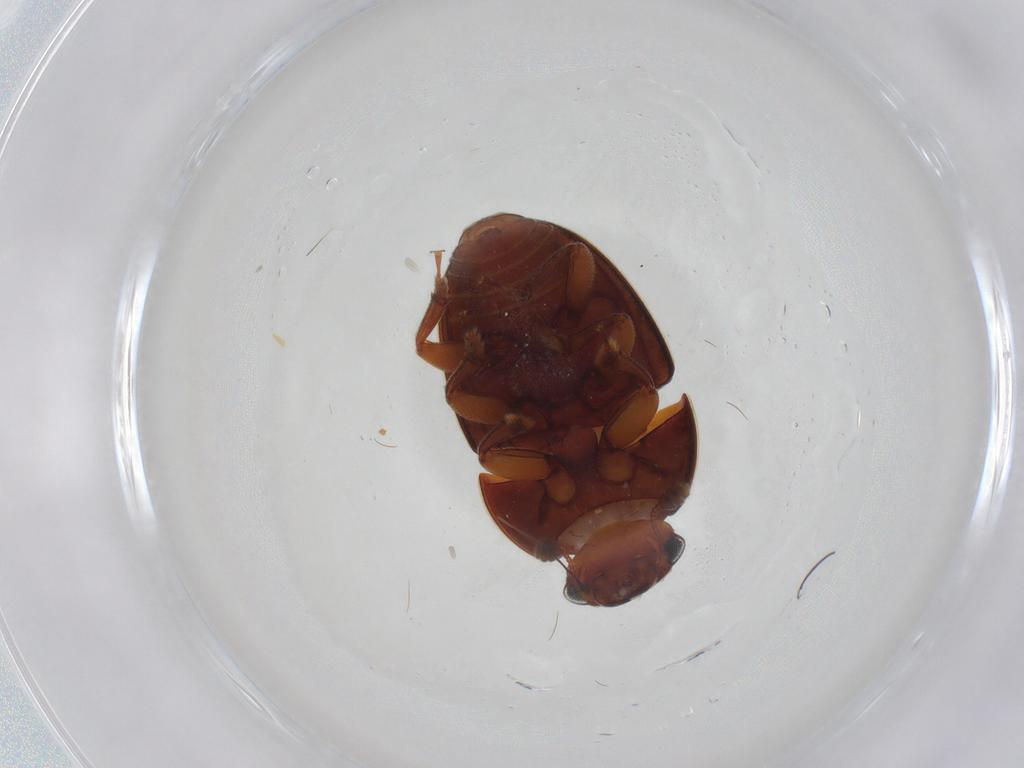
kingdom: Animalia
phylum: Arthropoda
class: Insecta
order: Coleoptera
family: Nitidulidae
